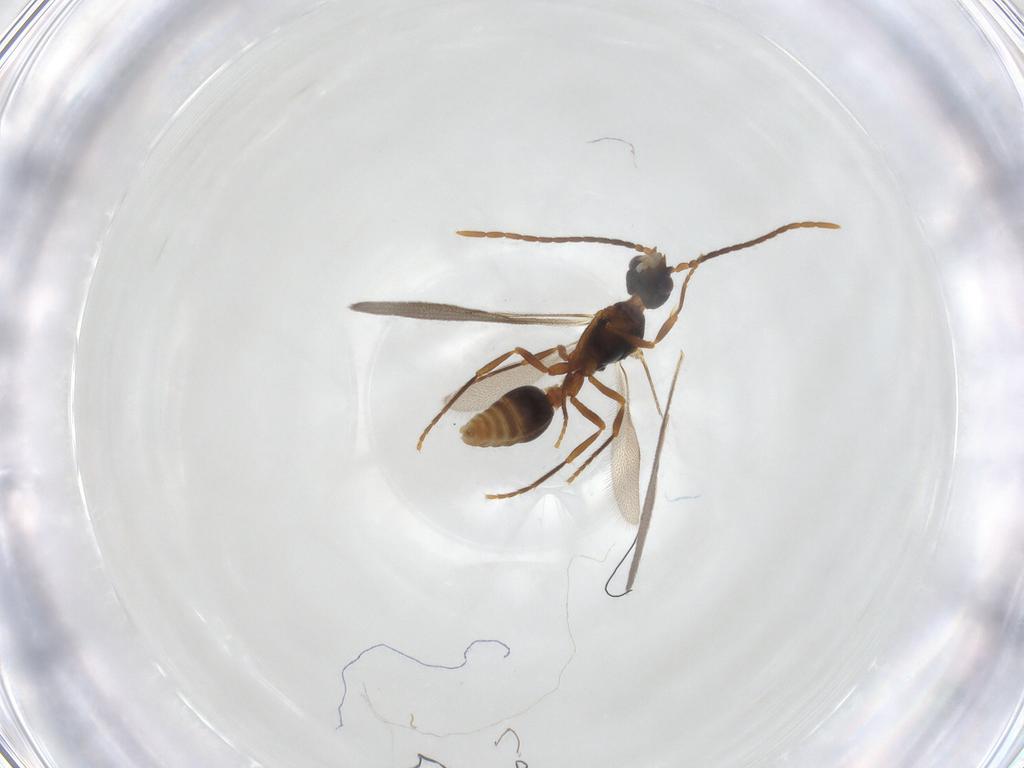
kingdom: Animalia
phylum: Arthropoda
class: Insecta
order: Hymenoptera
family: Formicidae
